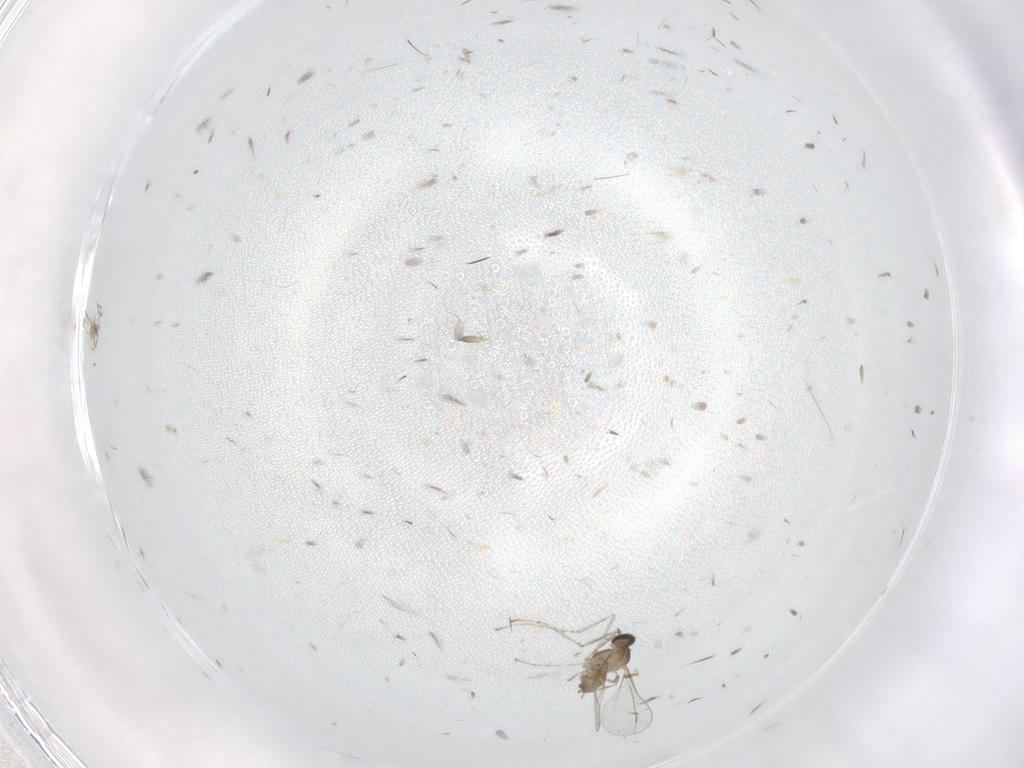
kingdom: Animalia
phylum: Arthropoda
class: Insecta
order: Diptera
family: Cecidomyiidae
